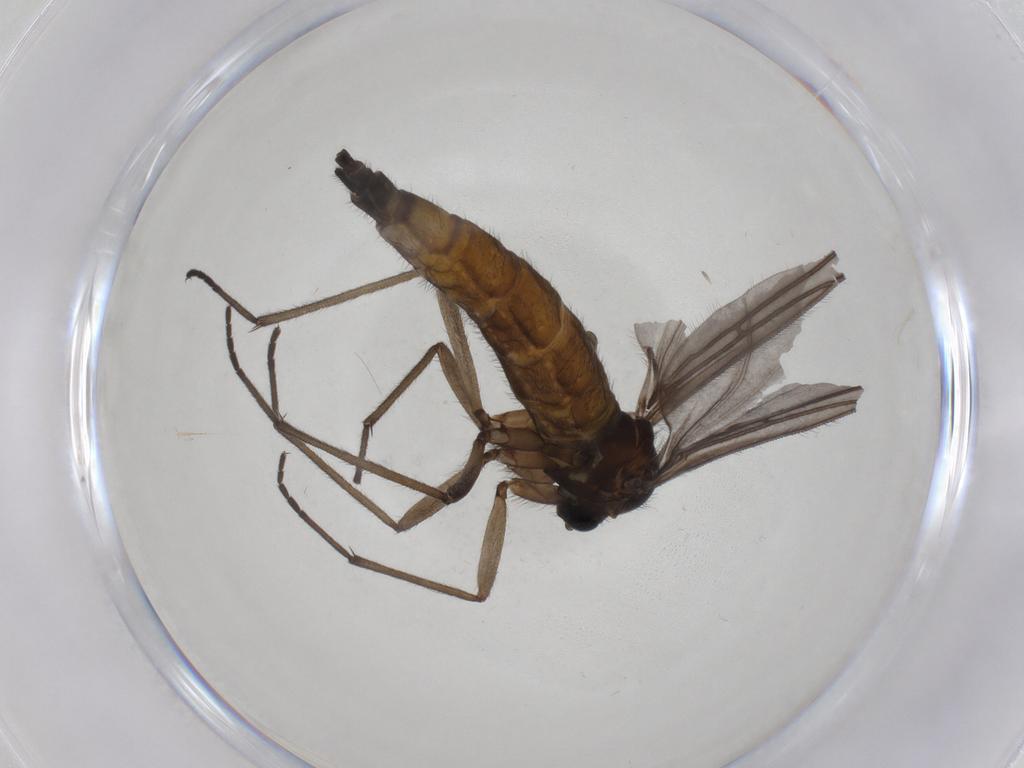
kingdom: Animalia
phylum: Arthropoda
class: Insecta
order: Diptera
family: Sciaridae
